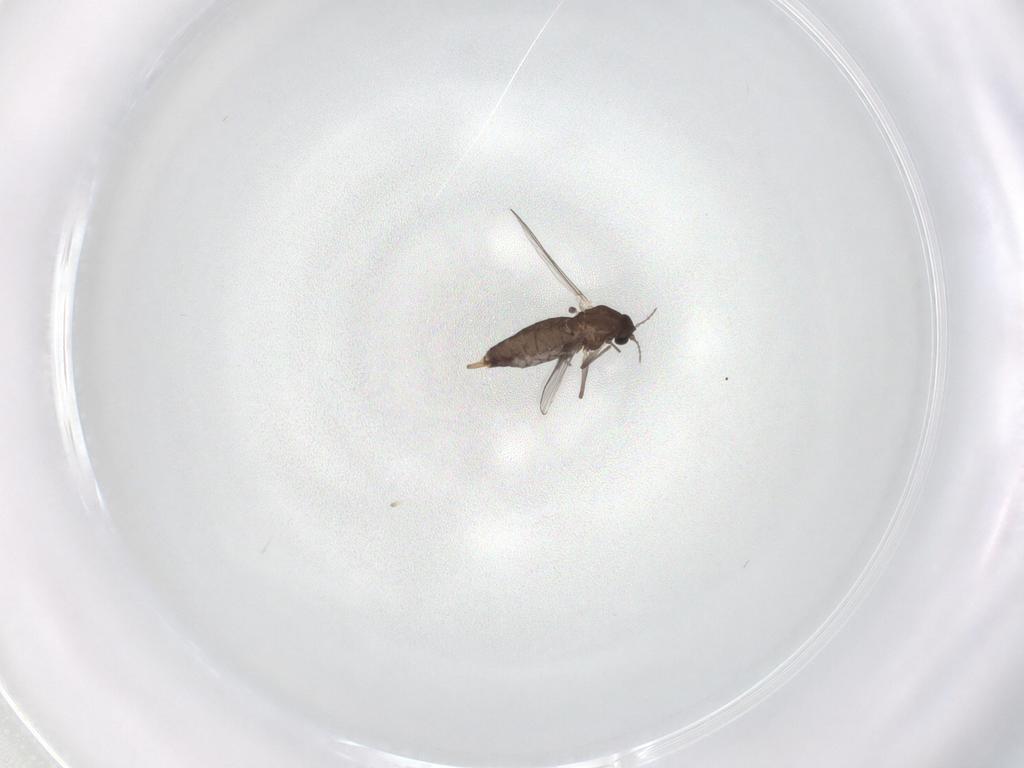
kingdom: Animalia
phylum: Arthropoda
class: Insecta
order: Diptera
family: Chironomidae
